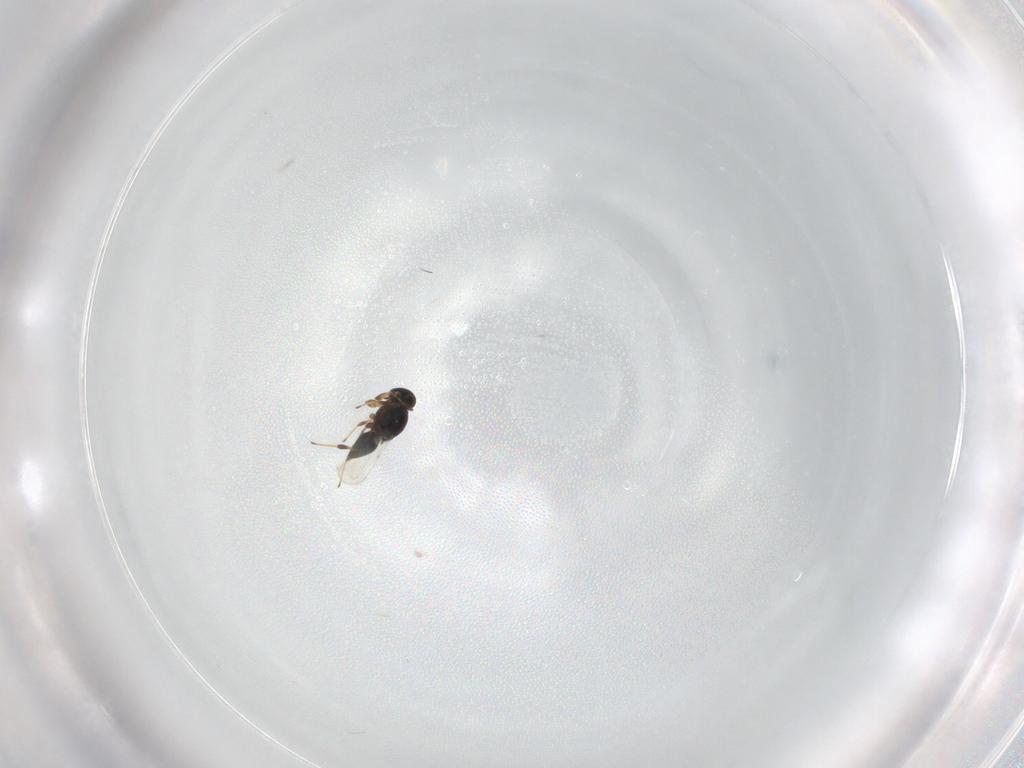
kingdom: Animalia
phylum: Arthropoda
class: Insecta
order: Hymenoptera
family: Platygastridae
